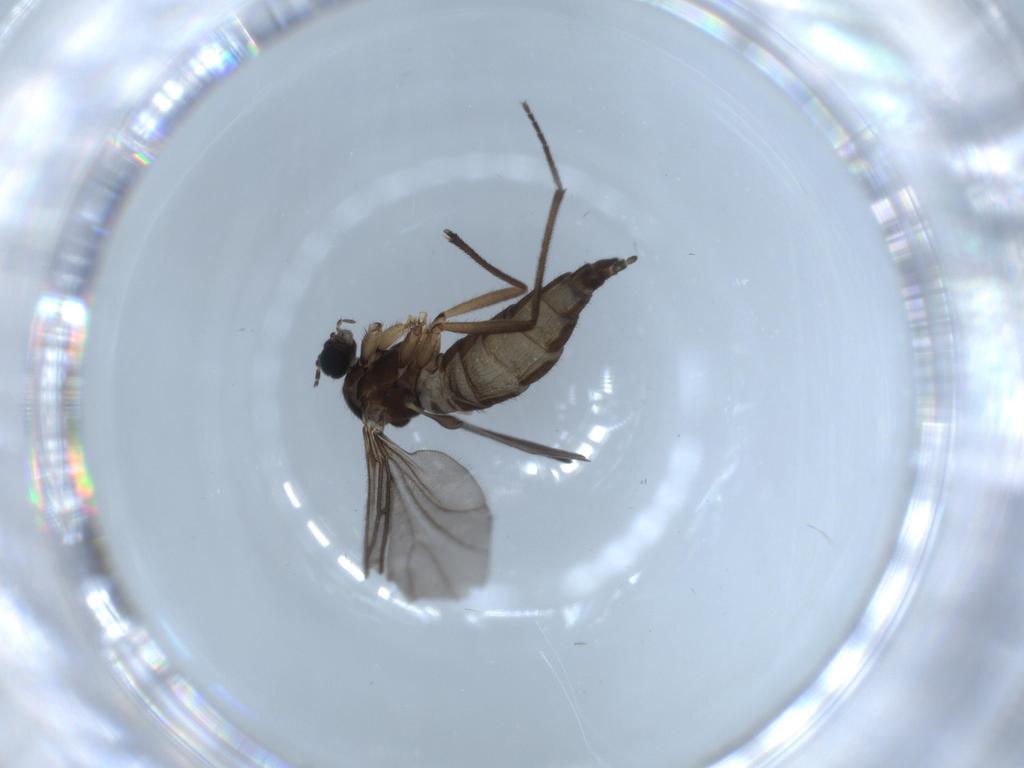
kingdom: Animalia
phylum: Arthropoda
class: Insecta
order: Diptera
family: Sciaridae
